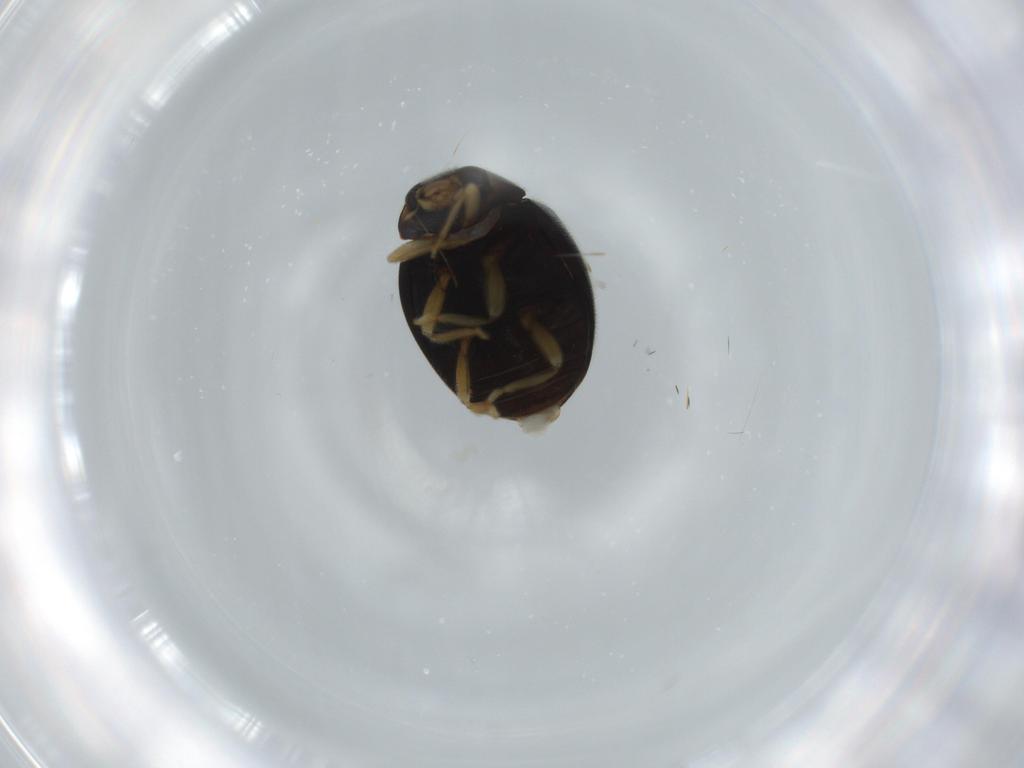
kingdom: Animalia
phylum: Arthropoda
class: Insecta
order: Coleoptera
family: Coccinellidae
